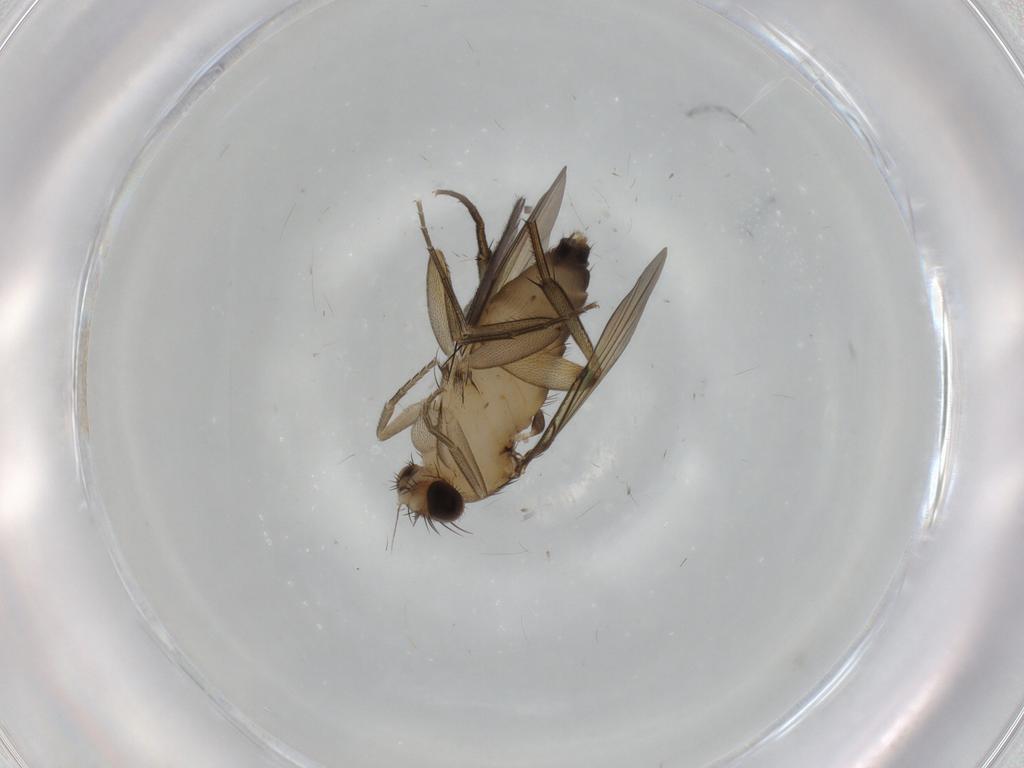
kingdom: Animalia
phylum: Arthropoda
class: Insecta
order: Diptera
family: Phoridae
